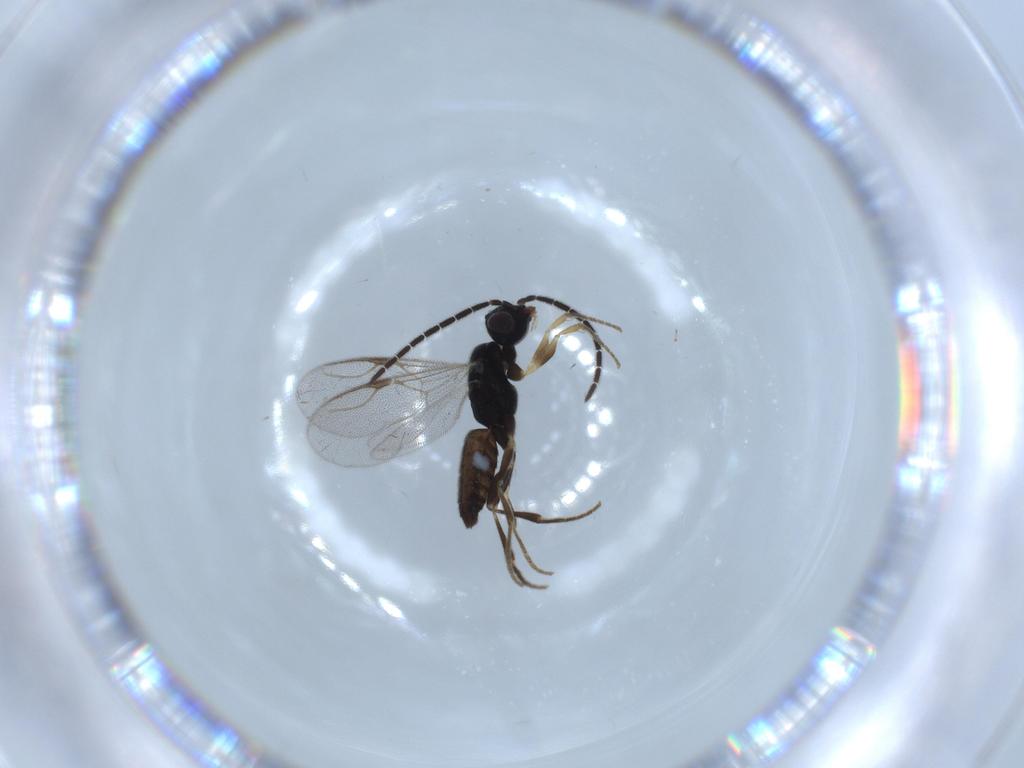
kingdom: Animalia
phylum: Arthropoda
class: Insecta
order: Hymenoptera
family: Dryinidae
